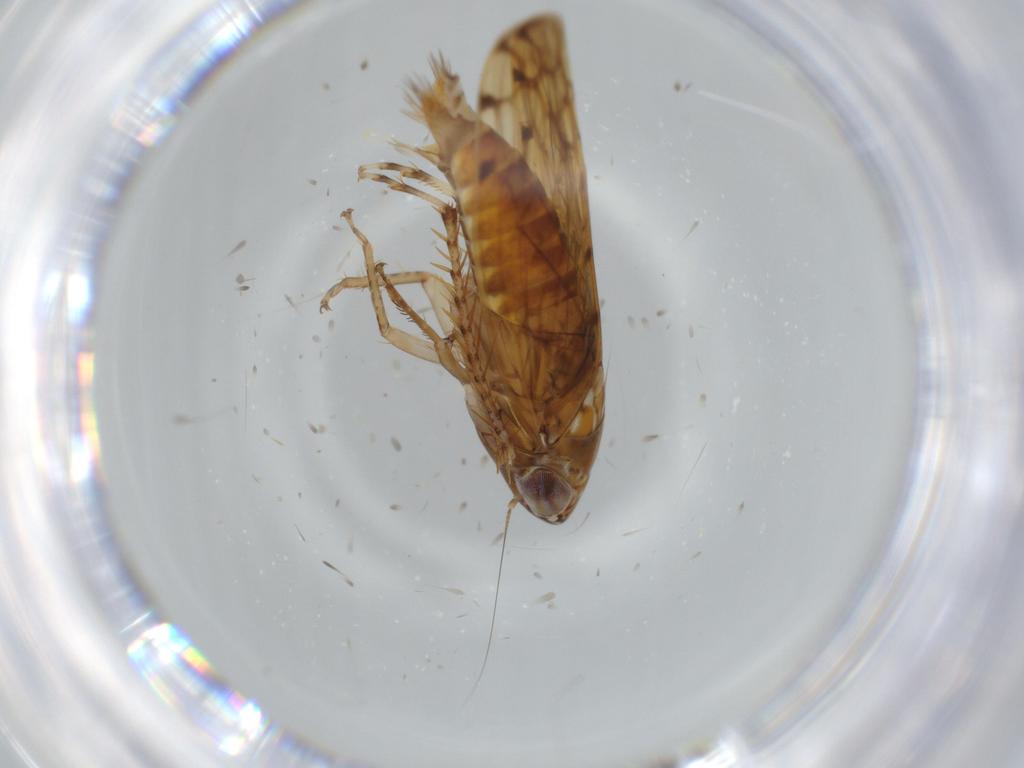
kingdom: Animalia
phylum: Arthropoda
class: Insecta
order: Hemiptera
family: Cicadellidae
